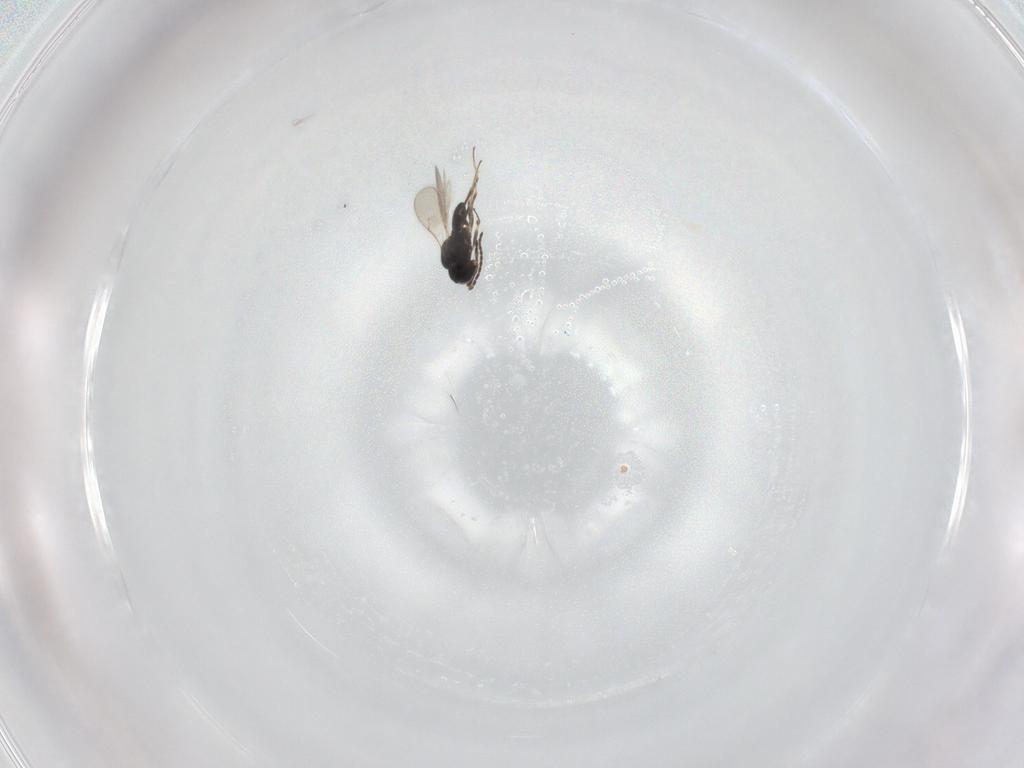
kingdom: Animalia
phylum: Arthropoda
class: Insecta
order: Hymenoptera
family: Scelionidae
